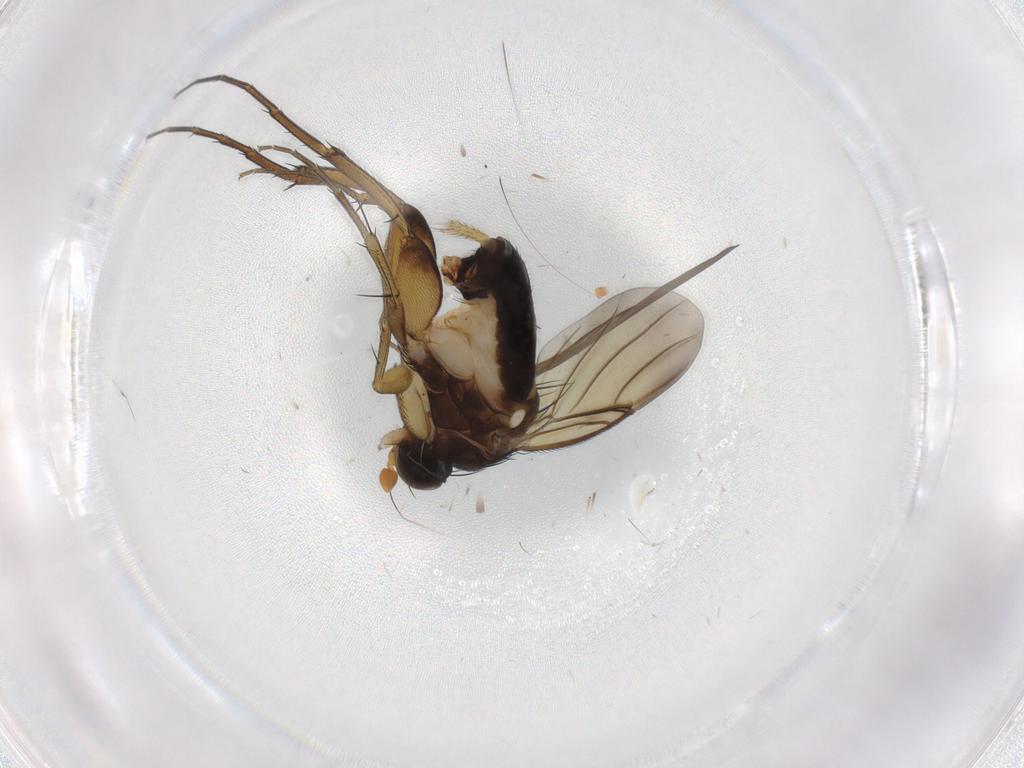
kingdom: Animalia
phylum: Arthropoda
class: Insecta
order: Diptera
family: Phoridae
